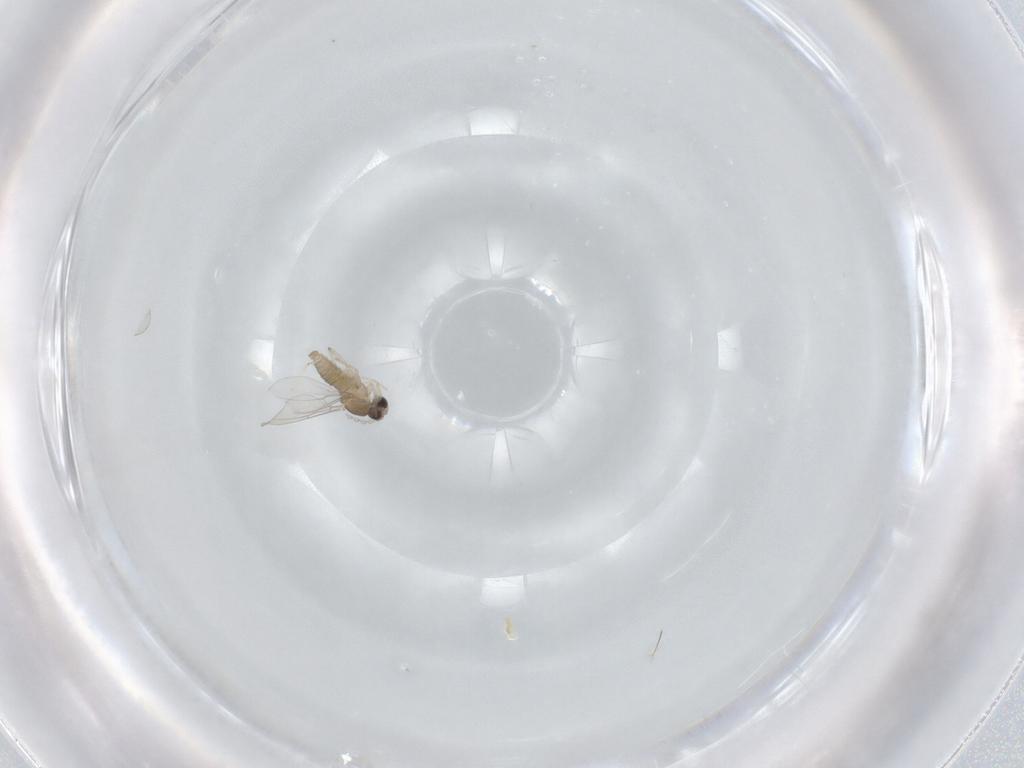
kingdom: Animalia
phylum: Arthropoda
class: Insecta
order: Diptera
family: Cecidomyiidae
